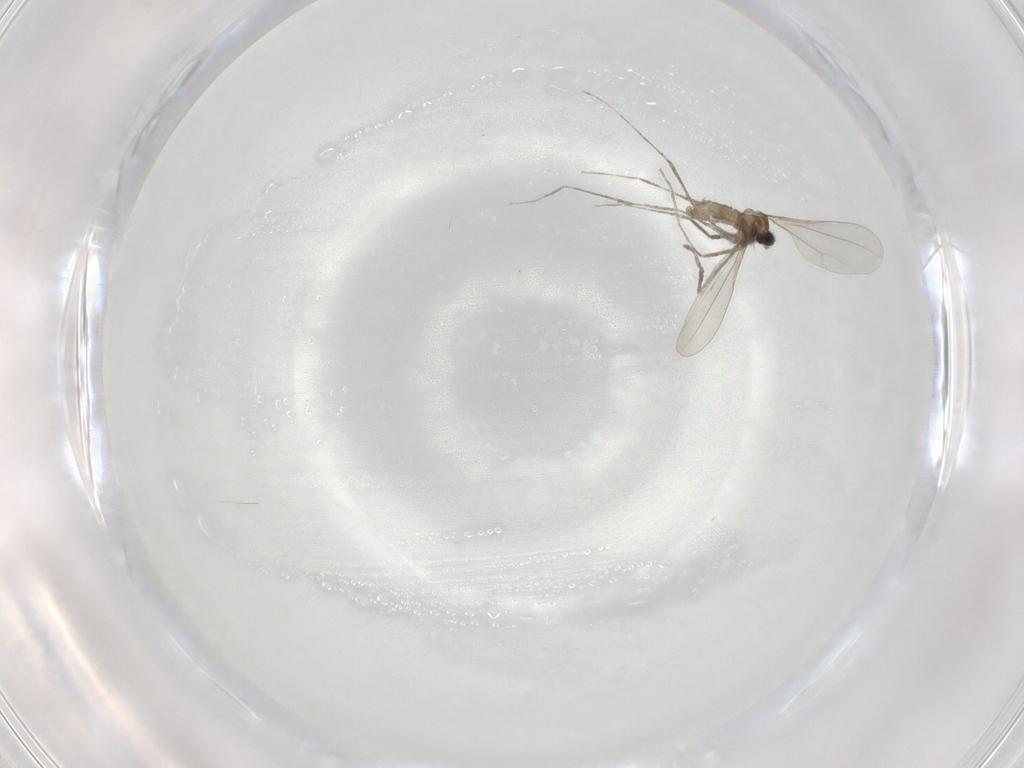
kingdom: Animalia
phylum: Arthropoda
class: Insecta
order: Diptera
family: Cecidomyiidae
